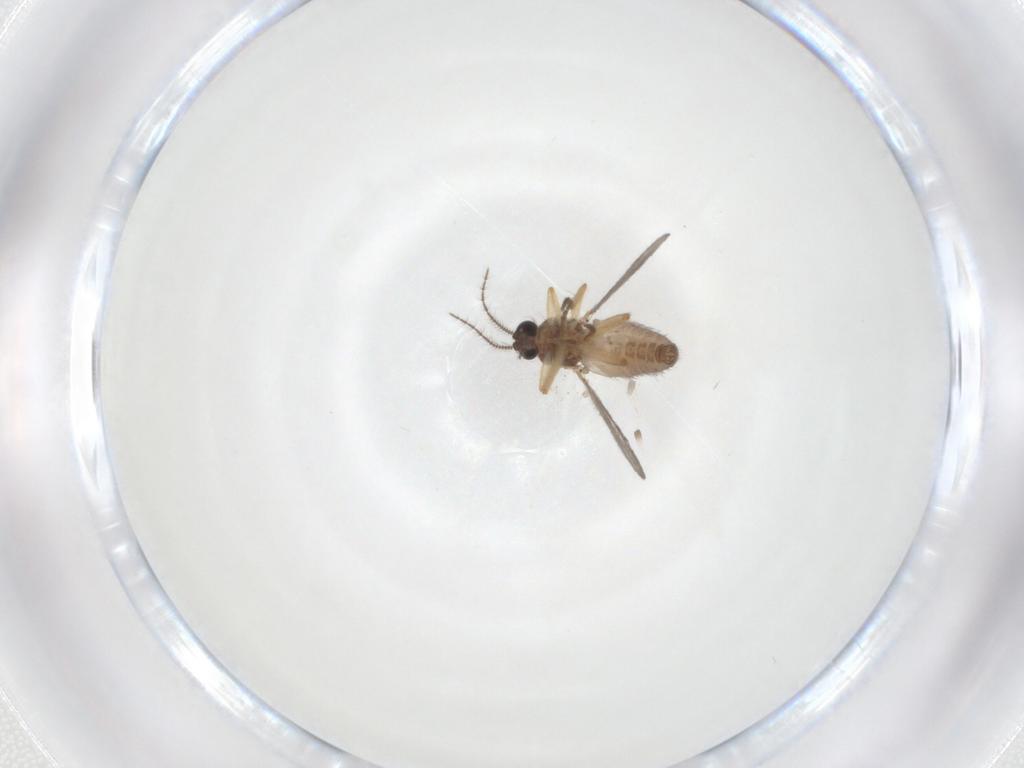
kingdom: Animalia
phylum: Arthropoda
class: Insecta
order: Diptera
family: Ceratopogonidae
